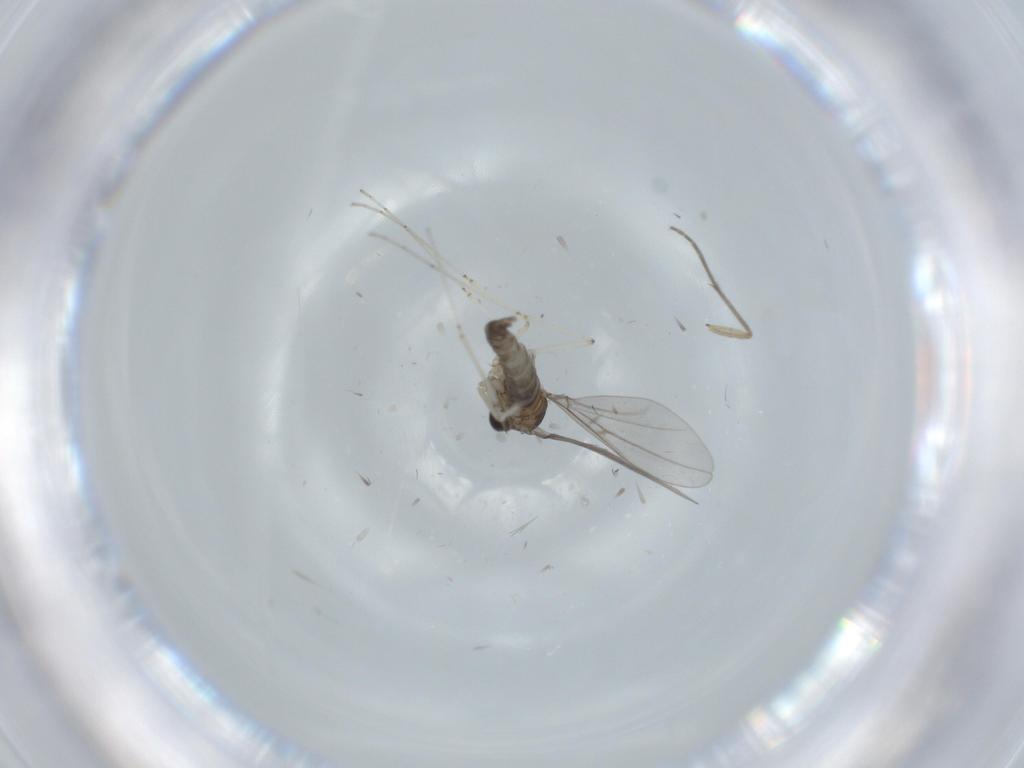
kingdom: Animalia
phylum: Arthropoda
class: Insecta
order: Diptera
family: Cecidomyiidae
